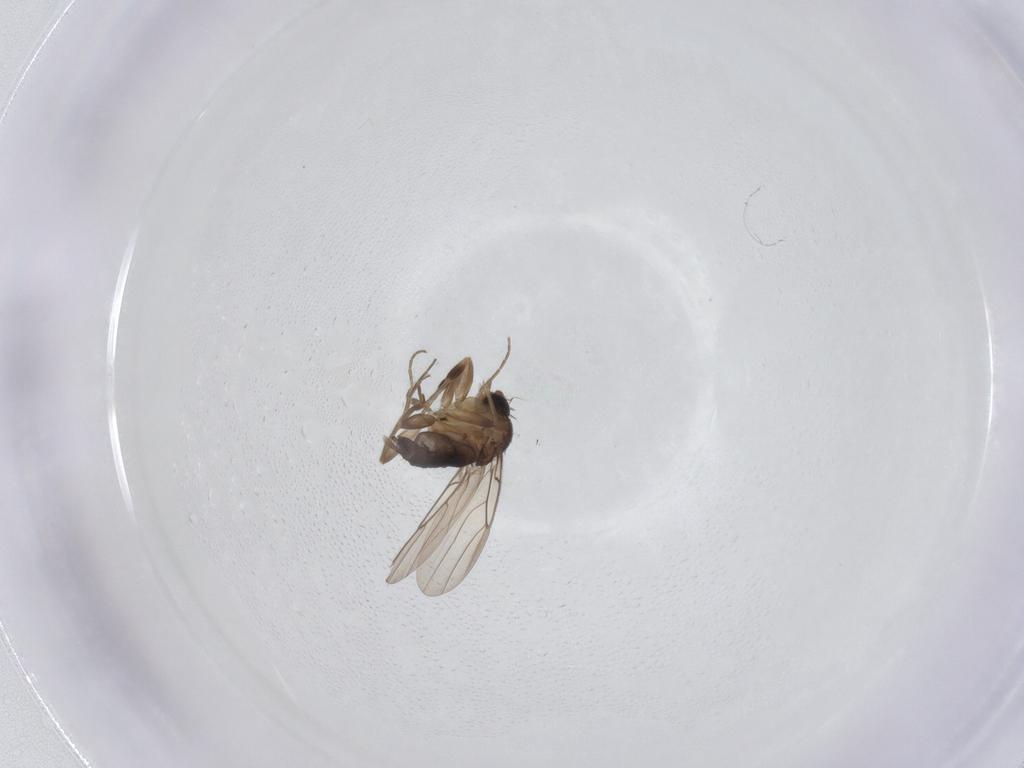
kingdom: Animalia
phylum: Arthropoda
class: Insecta
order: Diptera
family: Phoridae
